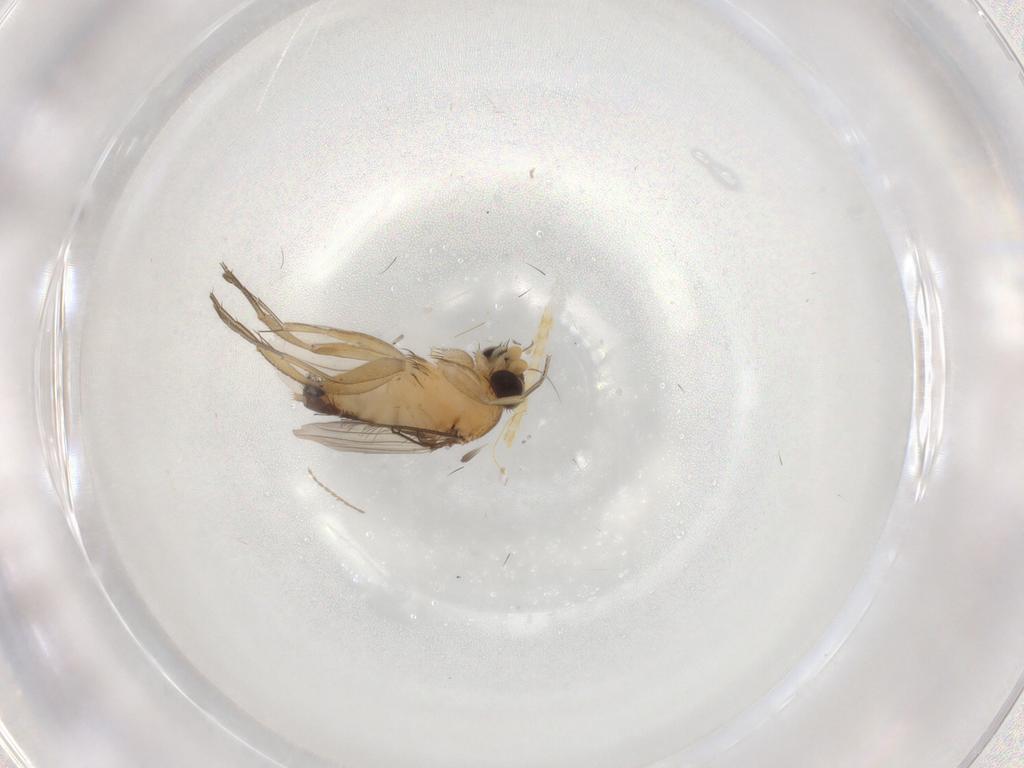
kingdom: Animalia
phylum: Arthropoda
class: Insecta
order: Diptera
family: Phoridae
